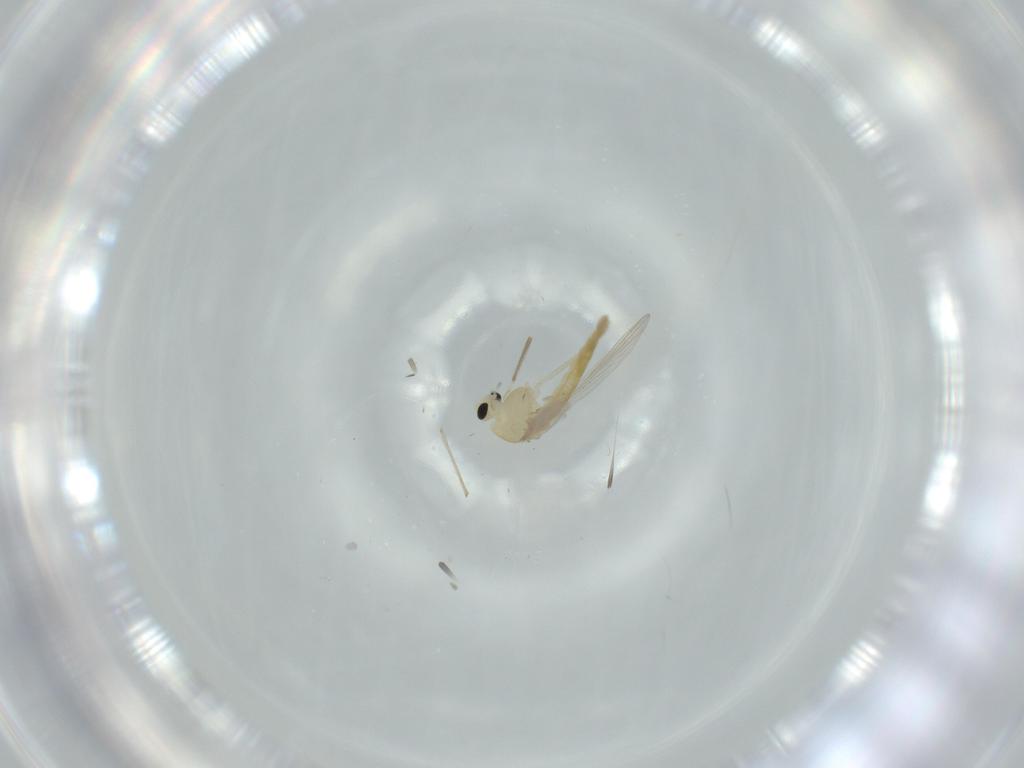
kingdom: Animalia
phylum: Arthropoda
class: Insecta
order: Diptera
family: Chironomidae
